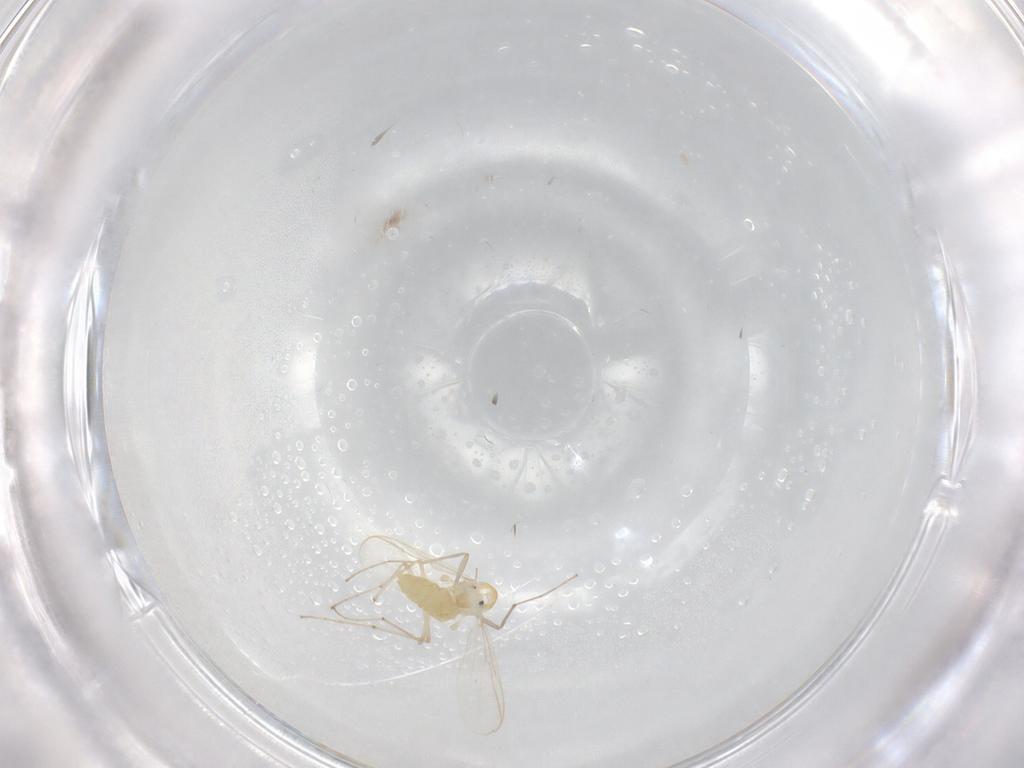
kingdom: Animalia
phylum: Arthropoda
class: Insecta
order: Diptera
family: Chironomidae
